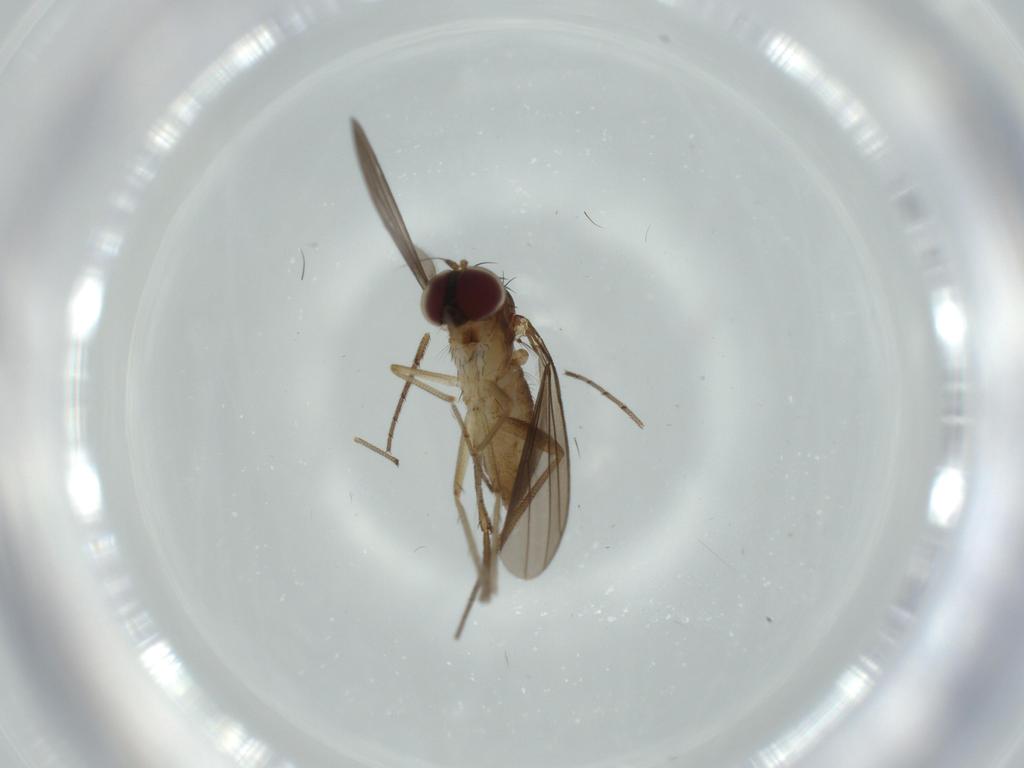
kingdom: Animalia
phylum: Arthropoda
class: Insecta
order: Diptera
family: Dolichopodidae
